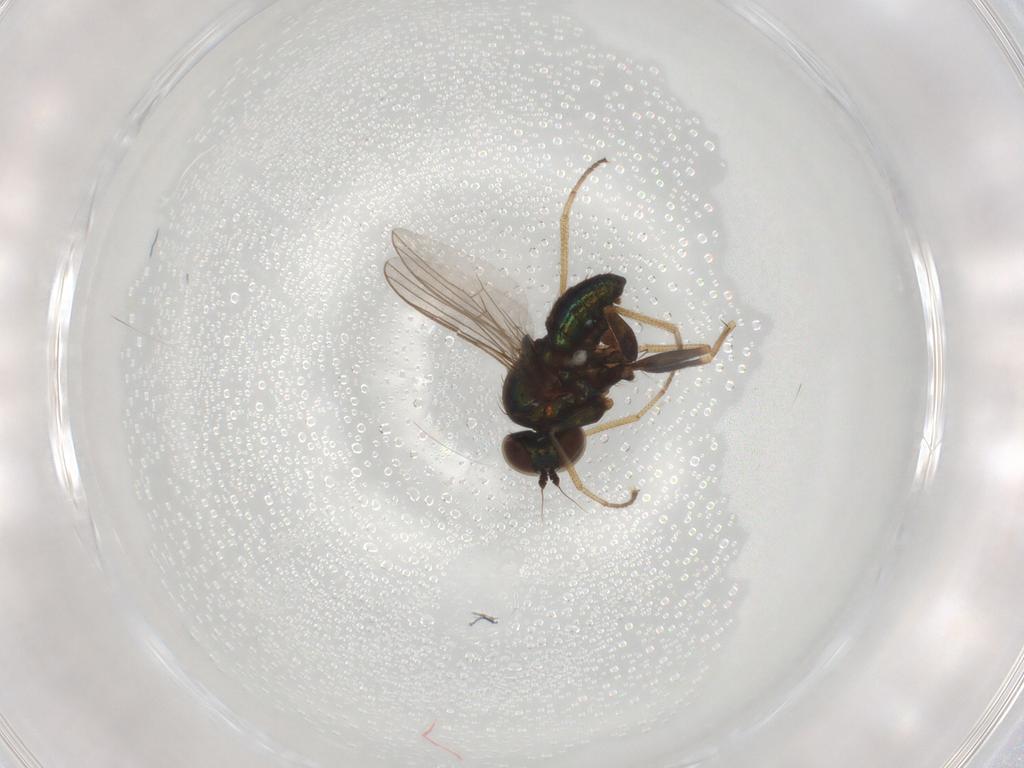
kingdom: Animalia
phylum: Arthropoda
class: Insecta
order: Diptera
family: Dolichopodidae
